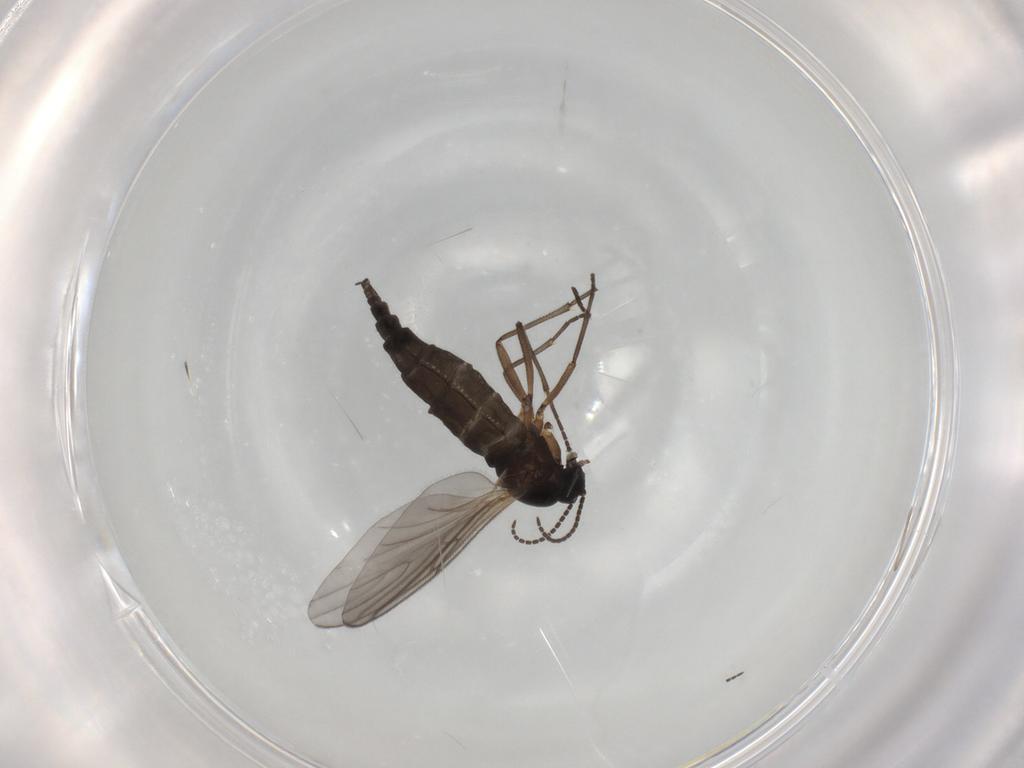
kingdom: Animalia
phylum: Arthropoda
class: Insecta
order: Diptera
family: Sciaridae
